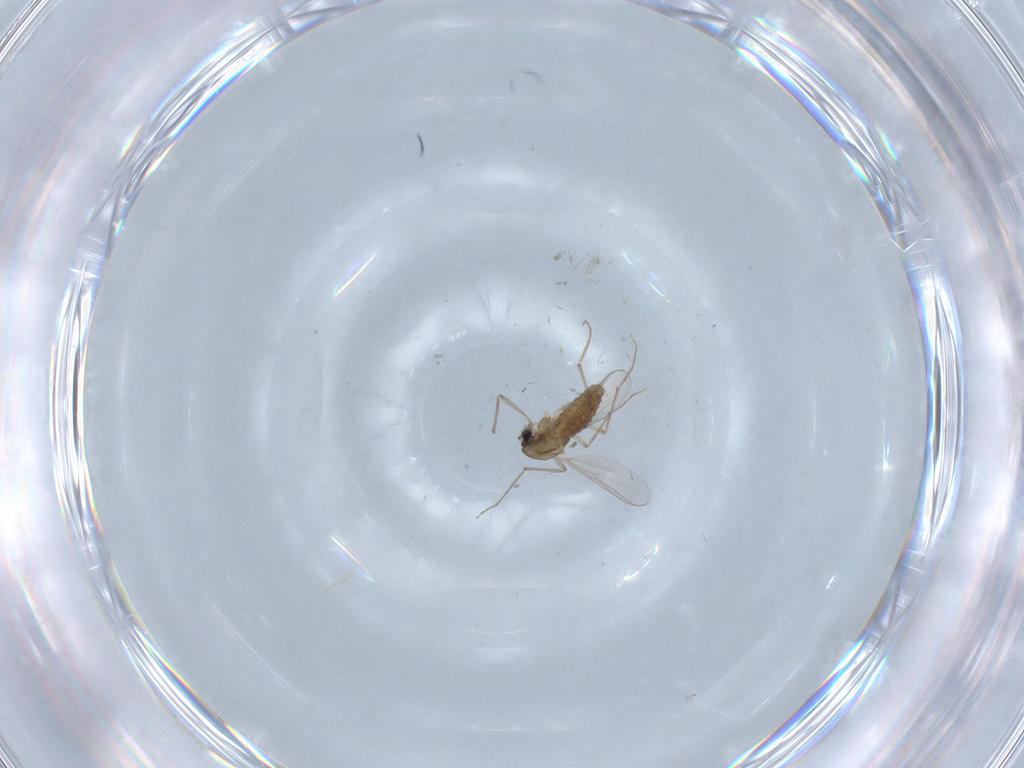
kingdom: Animalia
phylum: Arthropoda
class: Insecta
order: Diptera
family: Chironomidae
